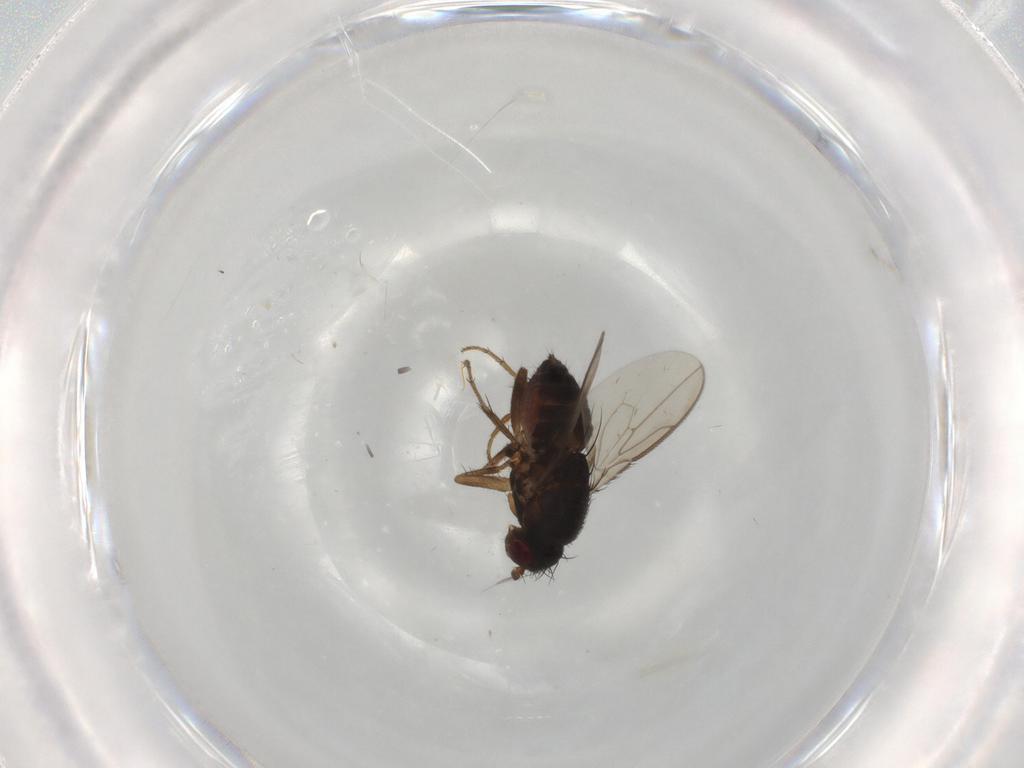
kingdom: Animalia
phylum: Arthropoda
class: Insecta
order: Diptera
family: Sphaeroceridae
